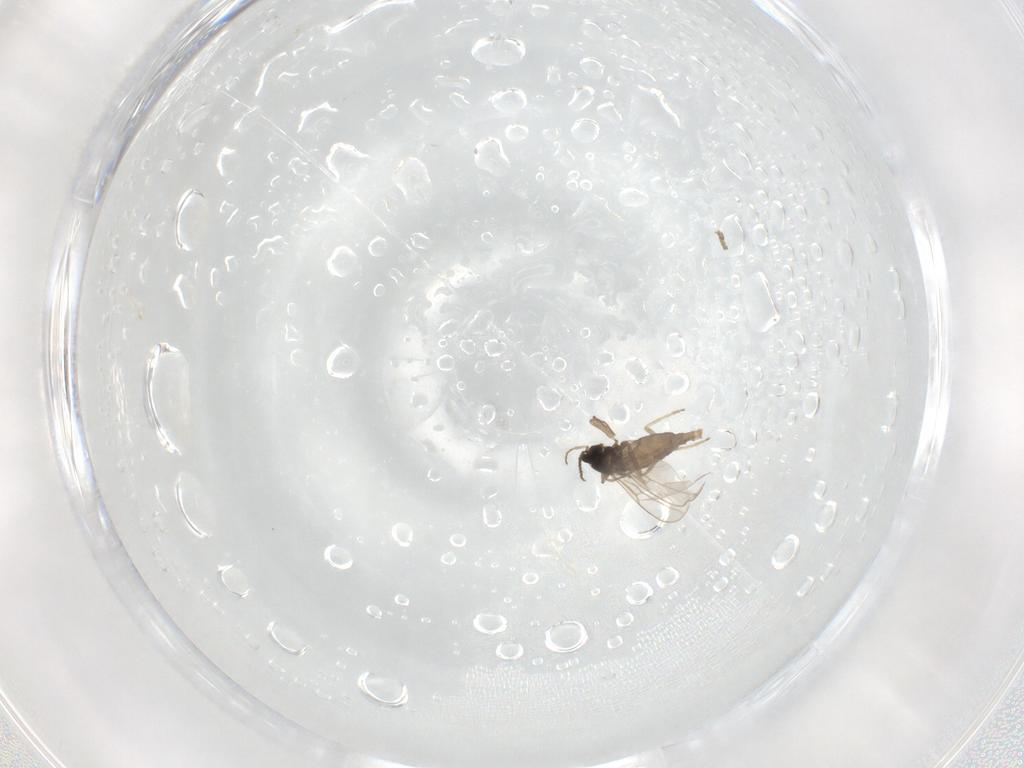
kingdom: Animalia
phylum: Arthropoda
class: Insecta
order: Diptera
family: Cecidomyiidae
